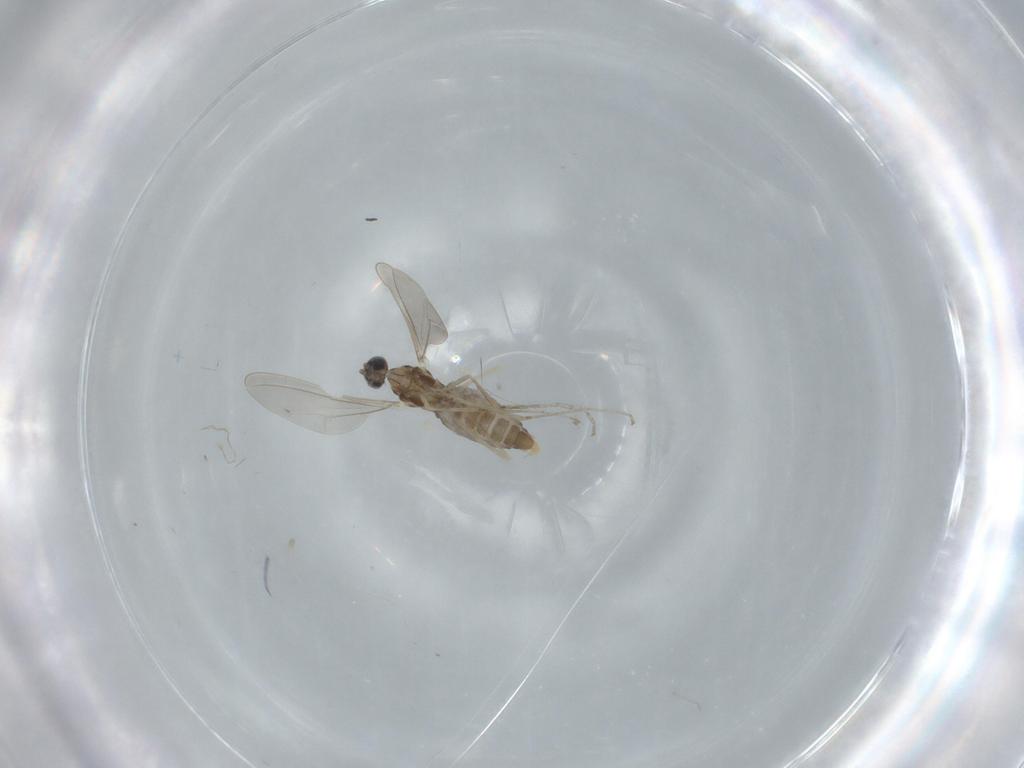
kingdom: Animalia
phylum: Arthropoda
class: Insecta
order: Diptera
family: Cecidomyiidae
